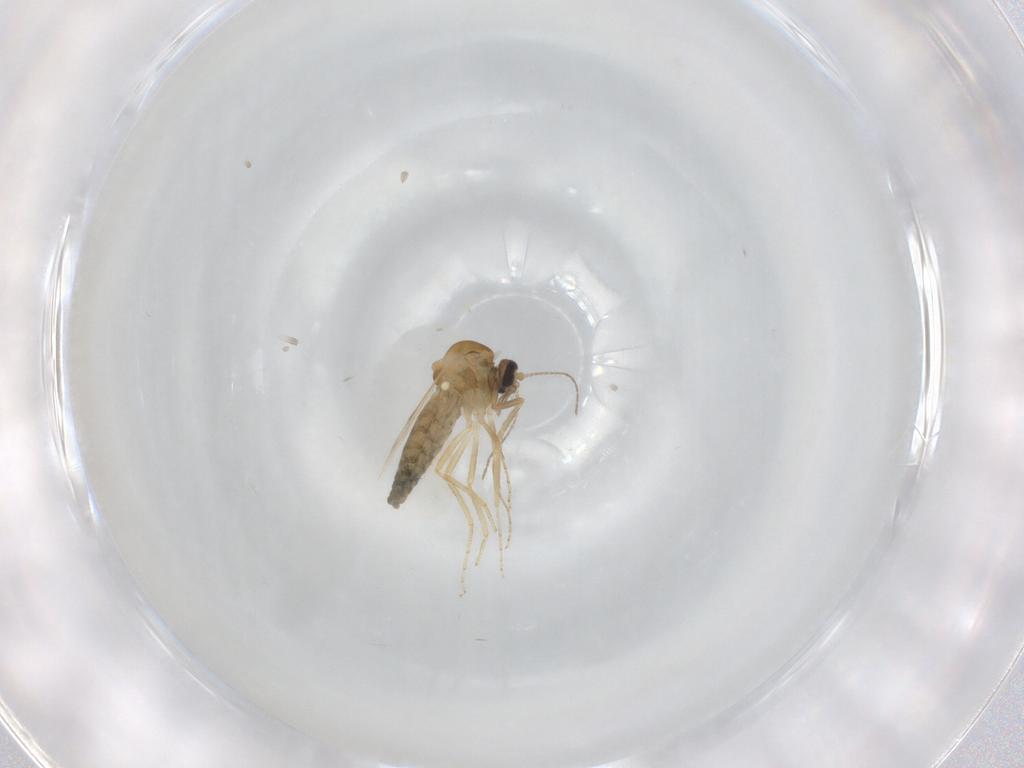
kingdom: Animalia
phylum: Arthropoda
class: Insecta
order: Diptera
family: Ceratopogonidae
